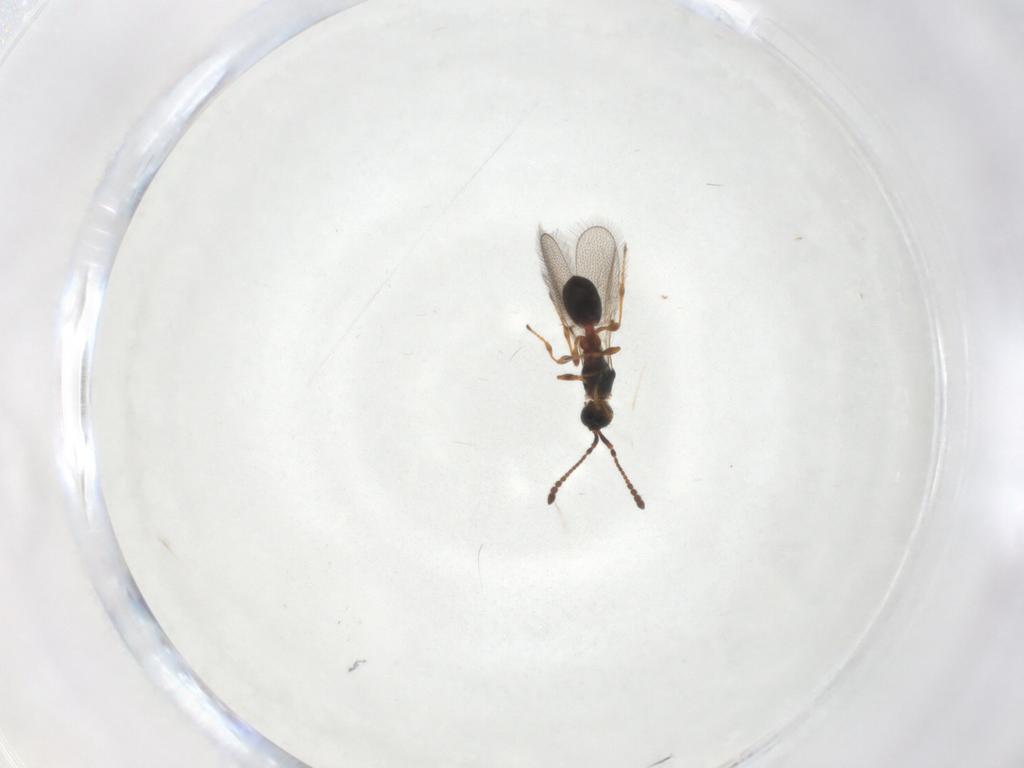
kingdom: Animalia
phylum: Arthropoda
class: Insecta
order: Hymenoptera
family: Diapriidae
